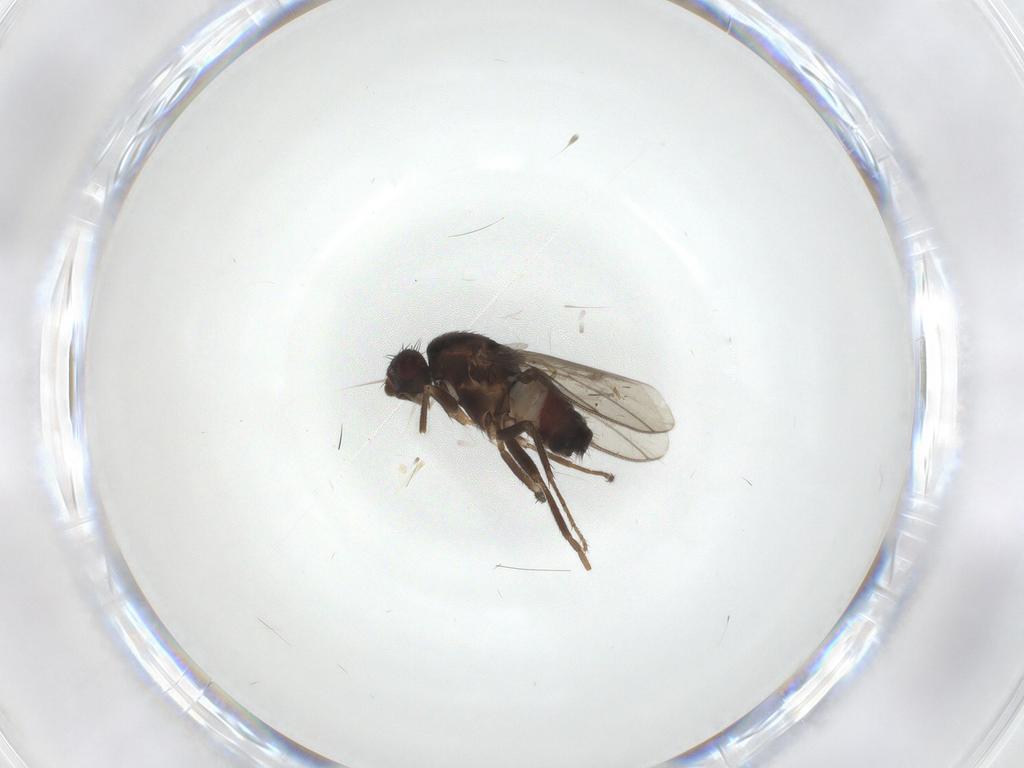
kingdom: Animalia
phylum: Arthropoda
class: Insecta
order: Diptera
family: Sphaeroceridae
